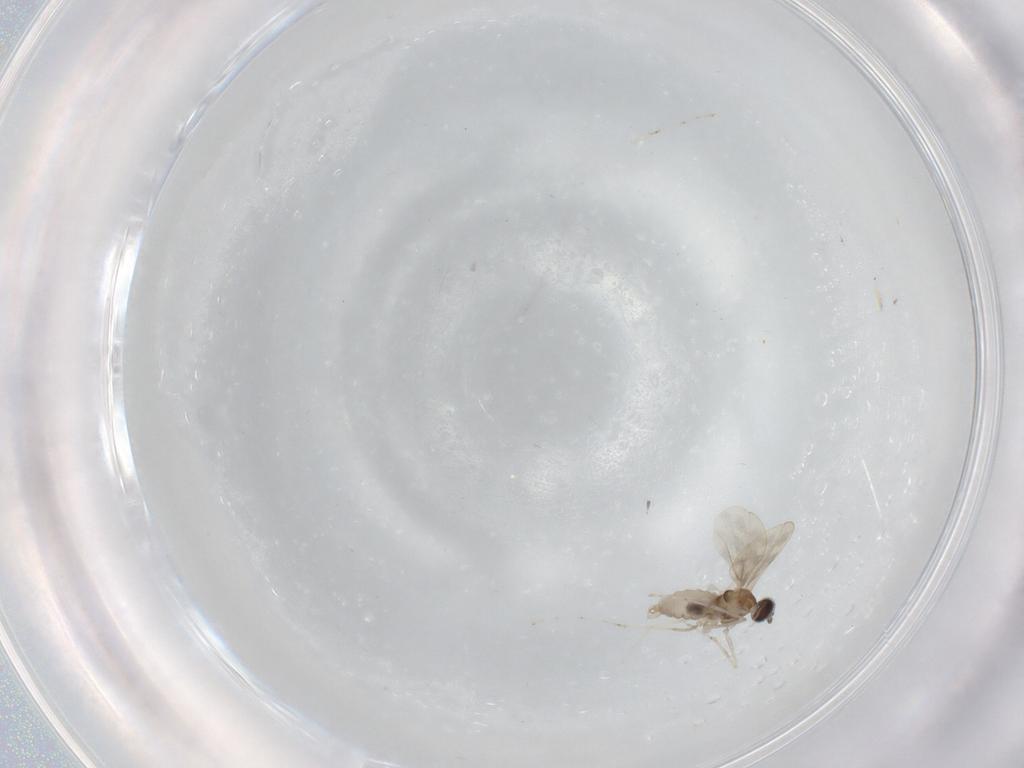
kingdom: Animalia
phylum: Arthropoda
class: Insecta
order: Diptera
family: Cecidomyiidae
